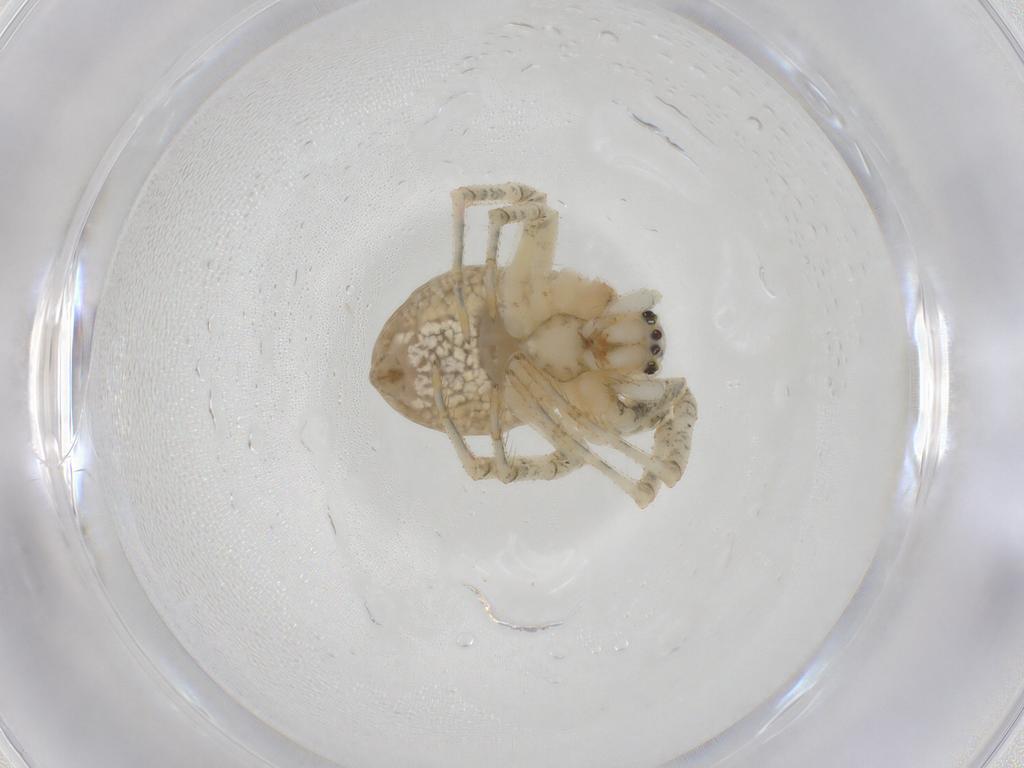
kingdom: Animalia
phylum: Arthropoda
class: Arachnida
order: Araneae
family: Araneidae
